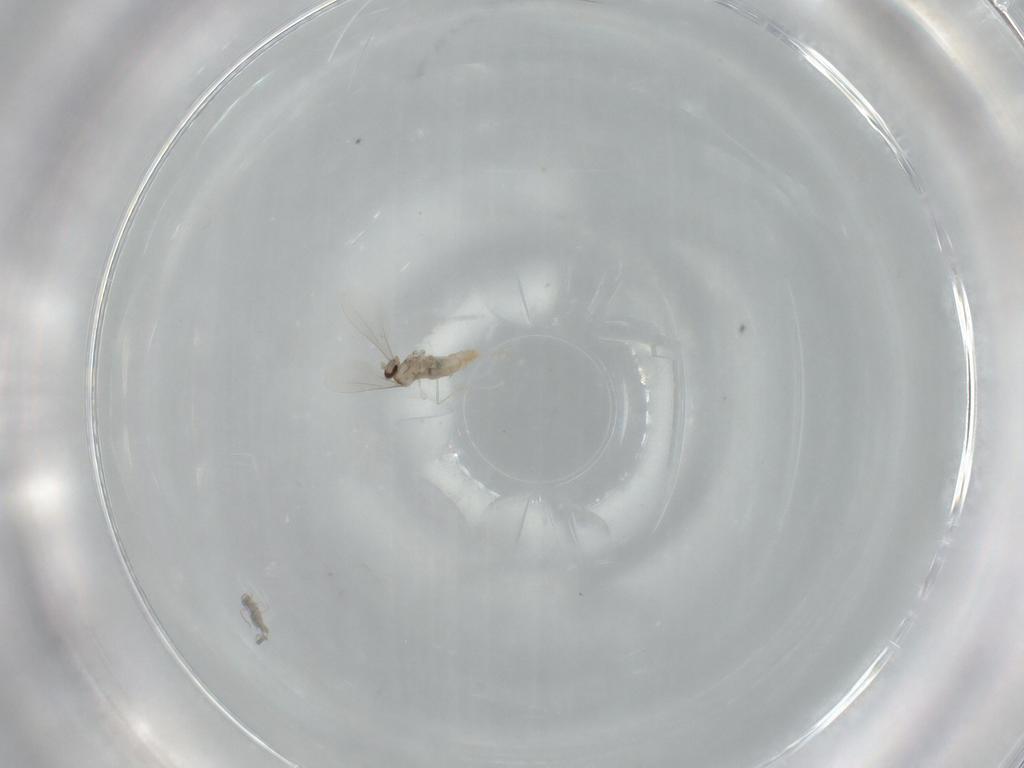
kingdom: Animalia
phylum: Arthropoda
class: Insecta
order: Diptera
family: Cecidomyiidae
